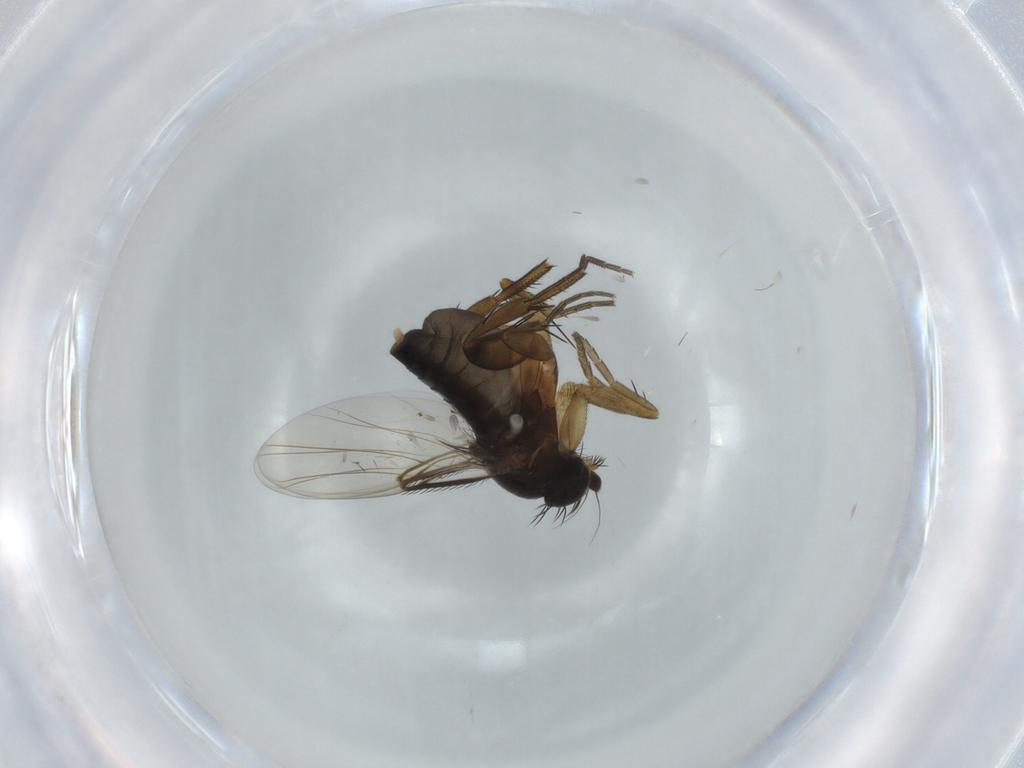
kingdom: Animalia
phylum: Arthropoda
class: Insecta
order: Diptera
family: Phoridae
